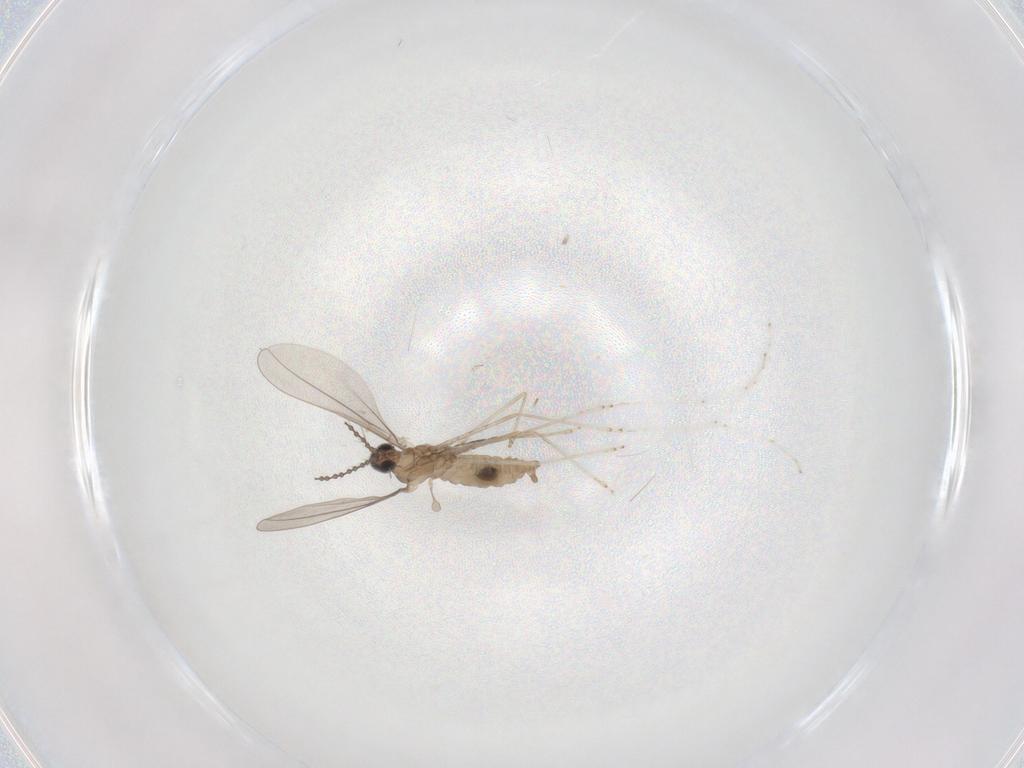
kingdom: Animalia
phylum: Arthropoda
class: Insecta
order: Diptera
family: Cecidomyiidae
